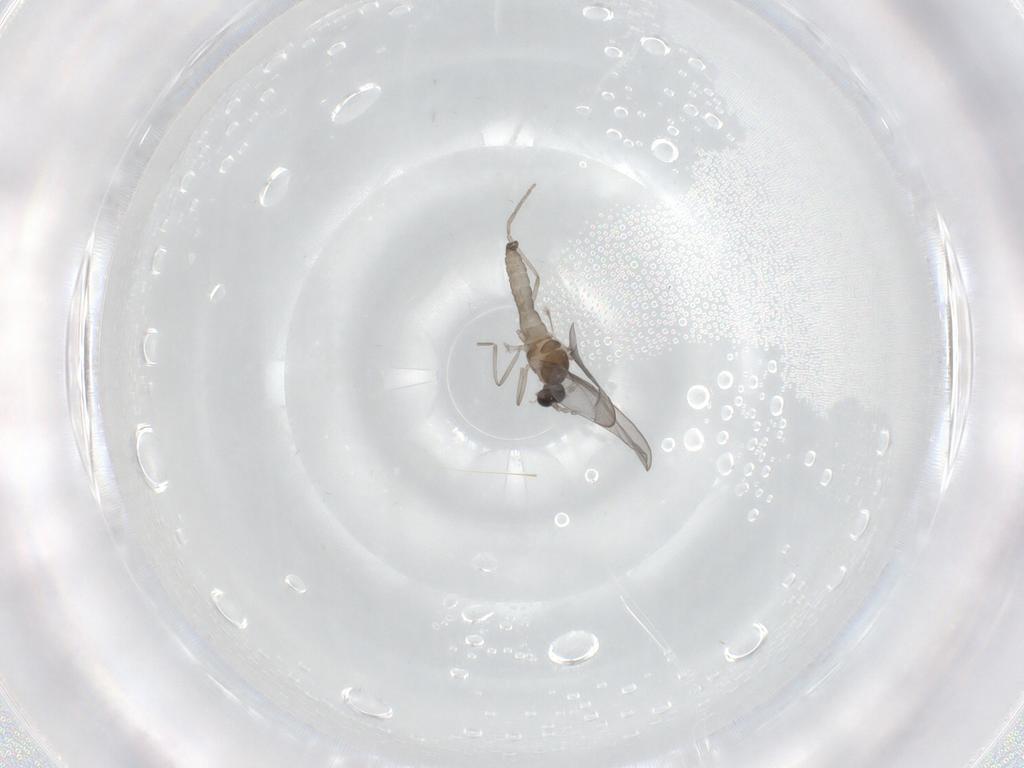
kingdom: Animalia
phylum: Arthropoda
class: Insecta
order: Diptera
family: Cecidomyiidae
